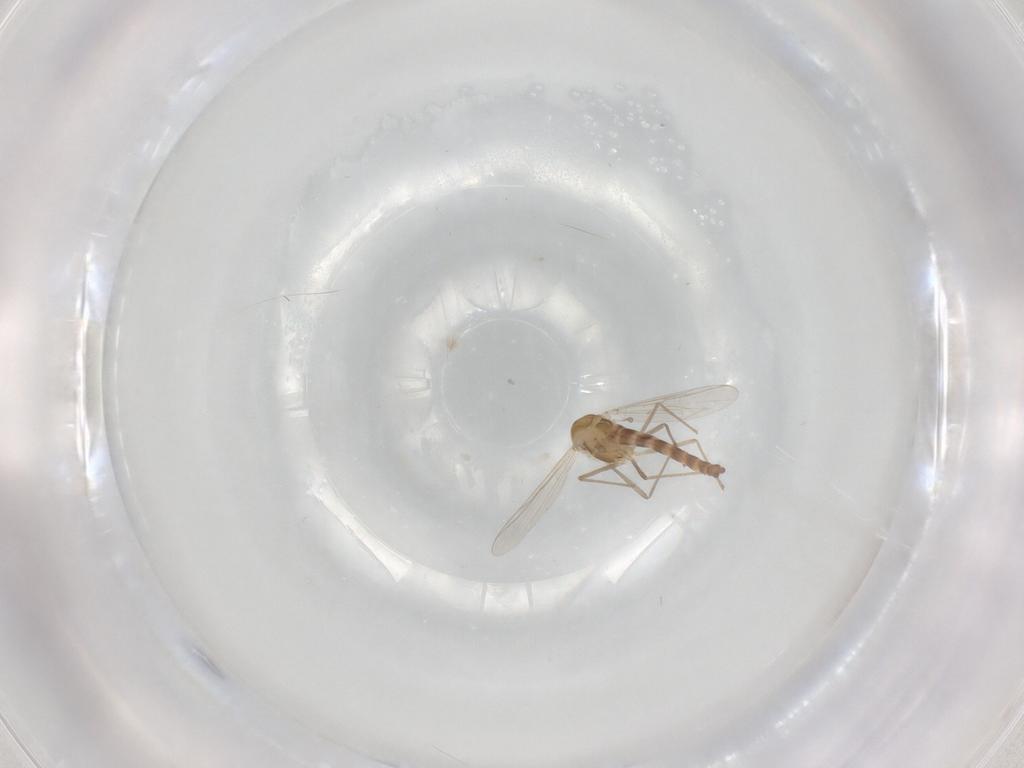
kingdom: Animalia
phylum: Arthropoda
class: Insecta
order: Diptera
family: Chironomidae
